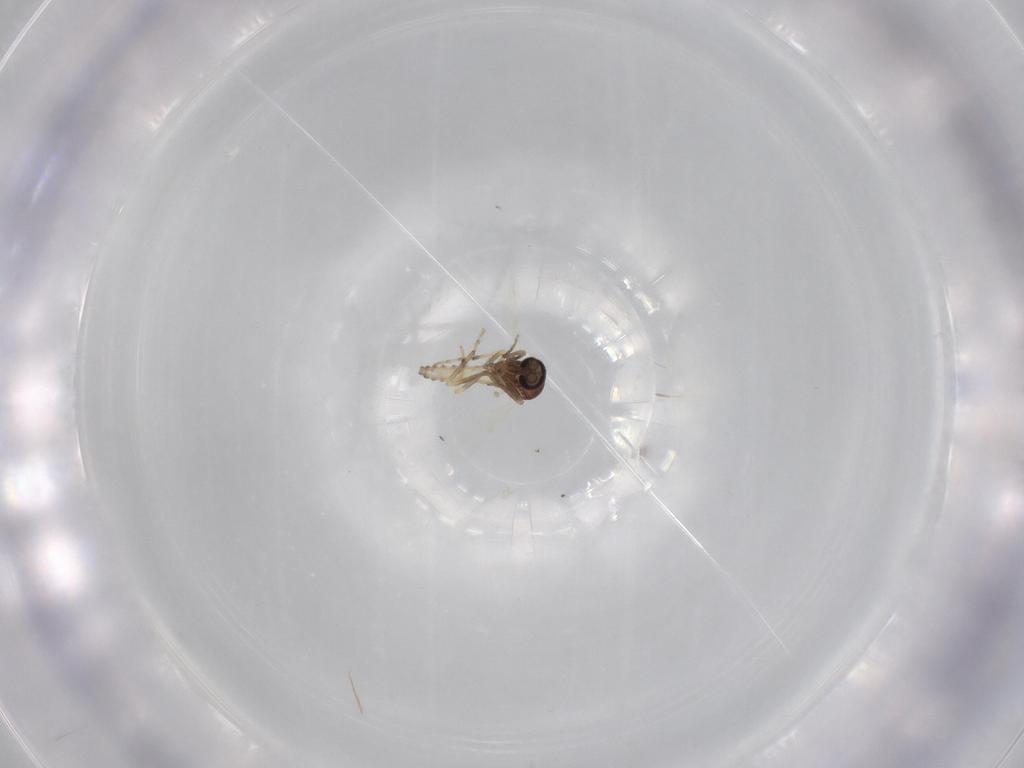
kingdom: Animalia
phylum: Arthropoda
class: Insecta
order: Diptera
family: Ceratopogonidae
